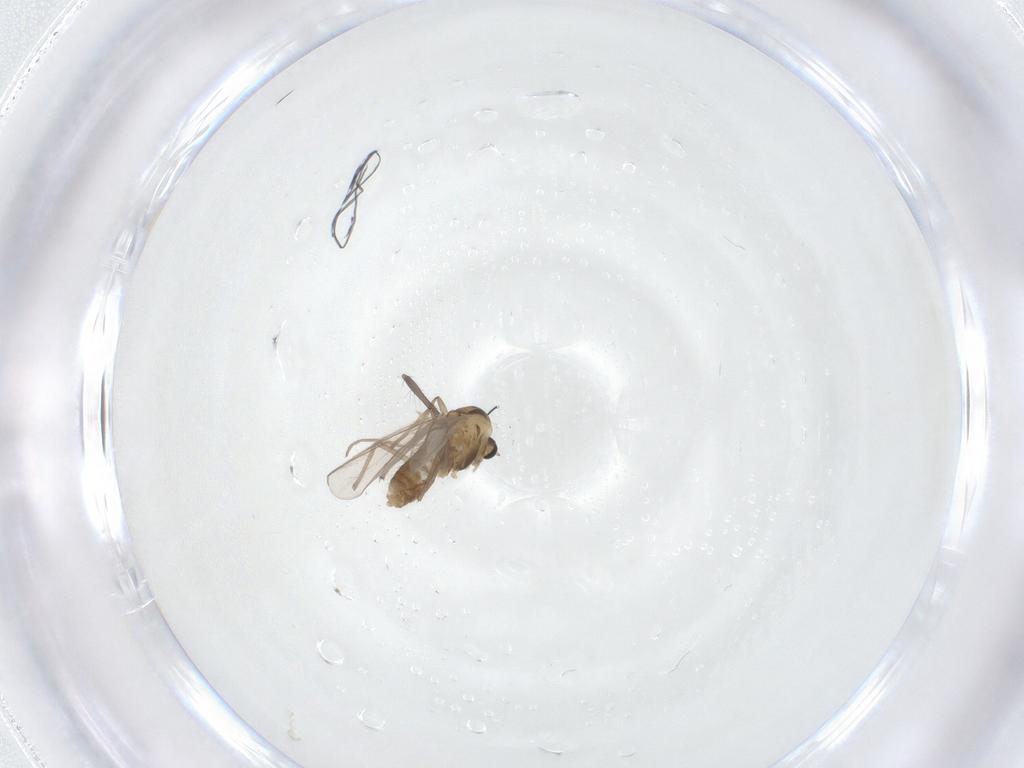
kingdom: Animalia
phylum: Arthropoda
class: Insecta
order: Diptera
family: Chironomidae
